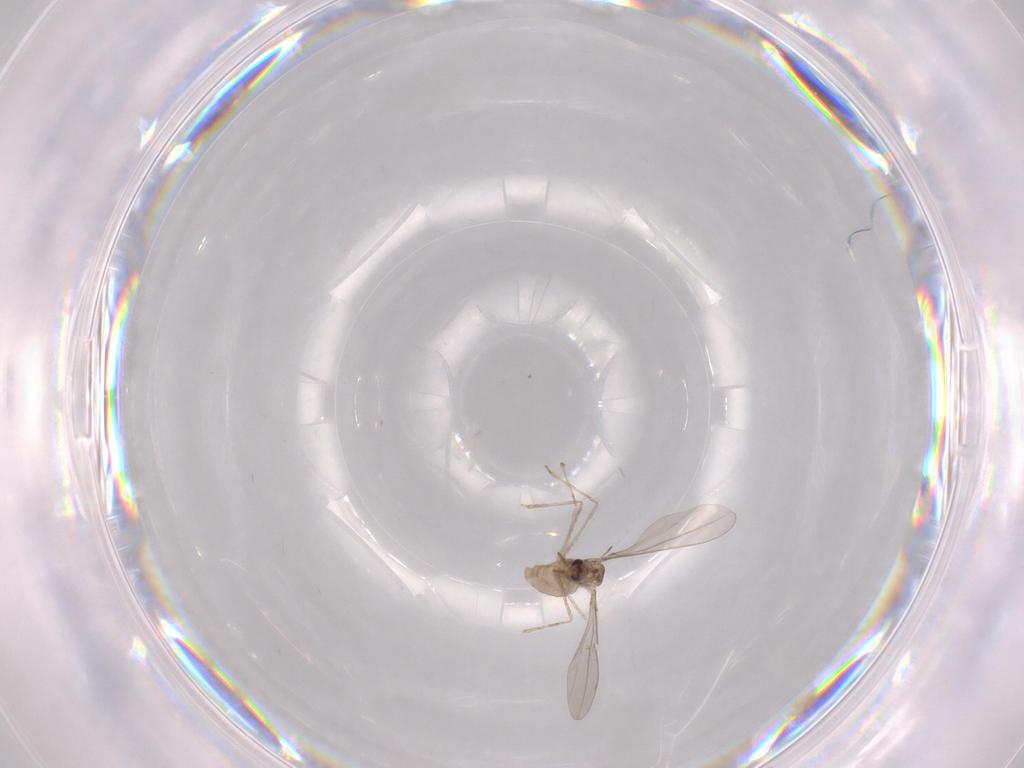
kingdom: Animalia
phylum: Arthropoda
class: Insecta
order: Diptera
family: Cecidomyiidae
